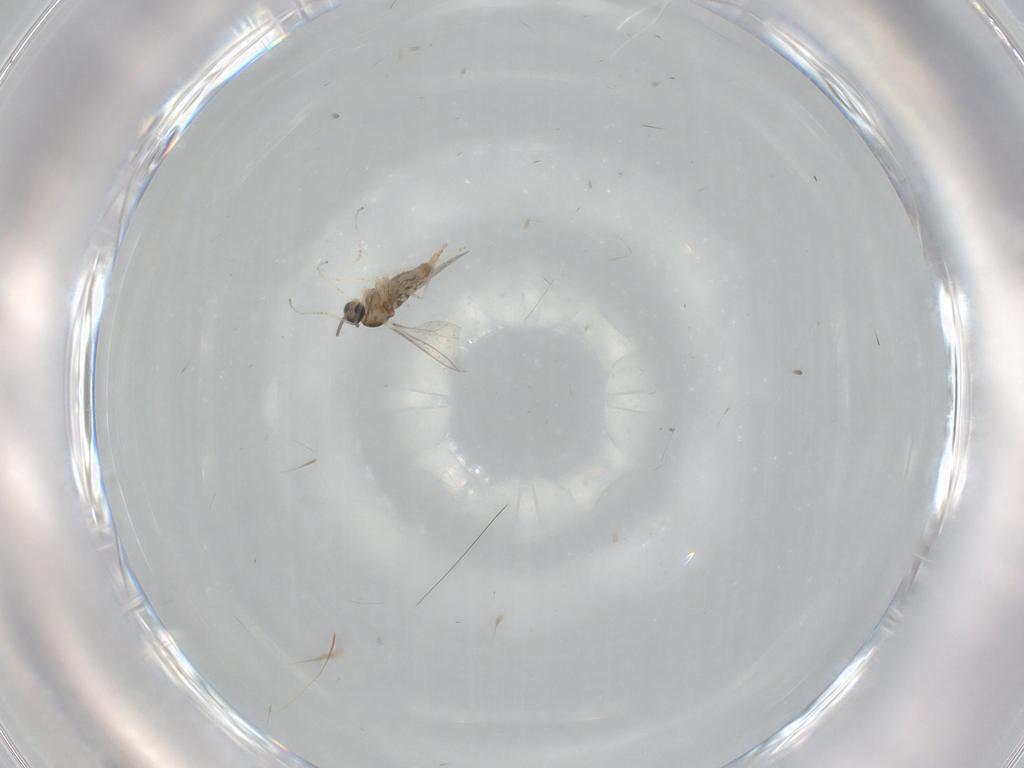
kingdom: Animalia
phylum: Arthropoda
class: Insecta
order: Diptera
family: Cecidomyiidae
